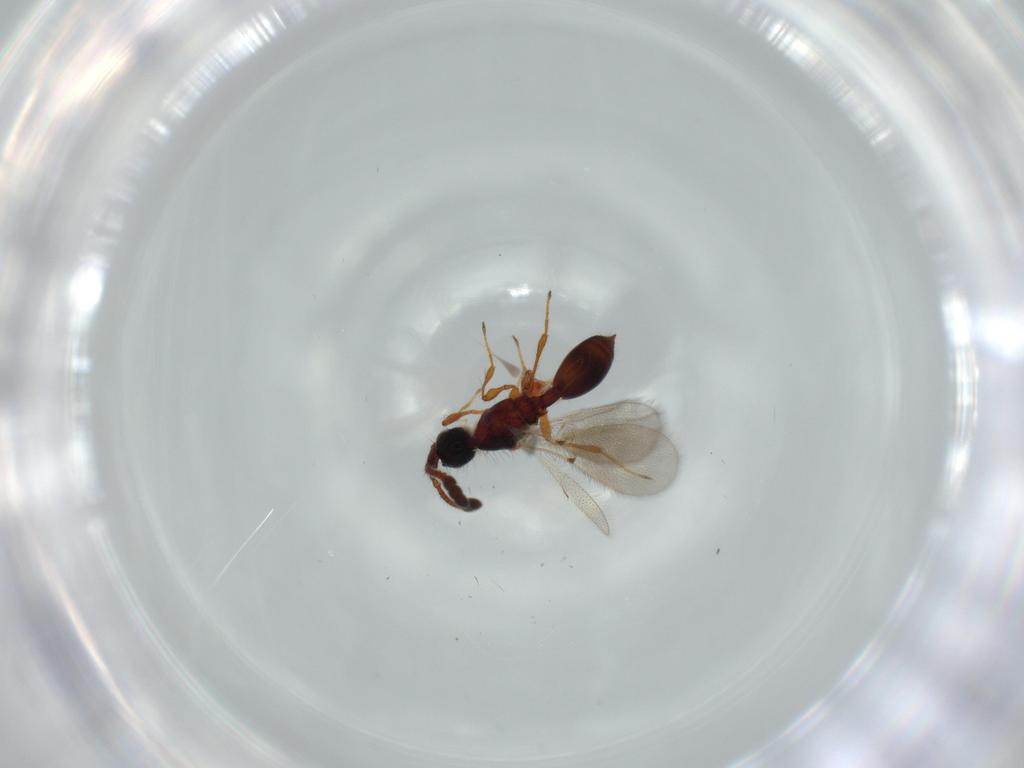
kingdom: Animalia
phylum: Arthropoda
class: Insecta
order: Hymenoptera
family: Diapriidae
